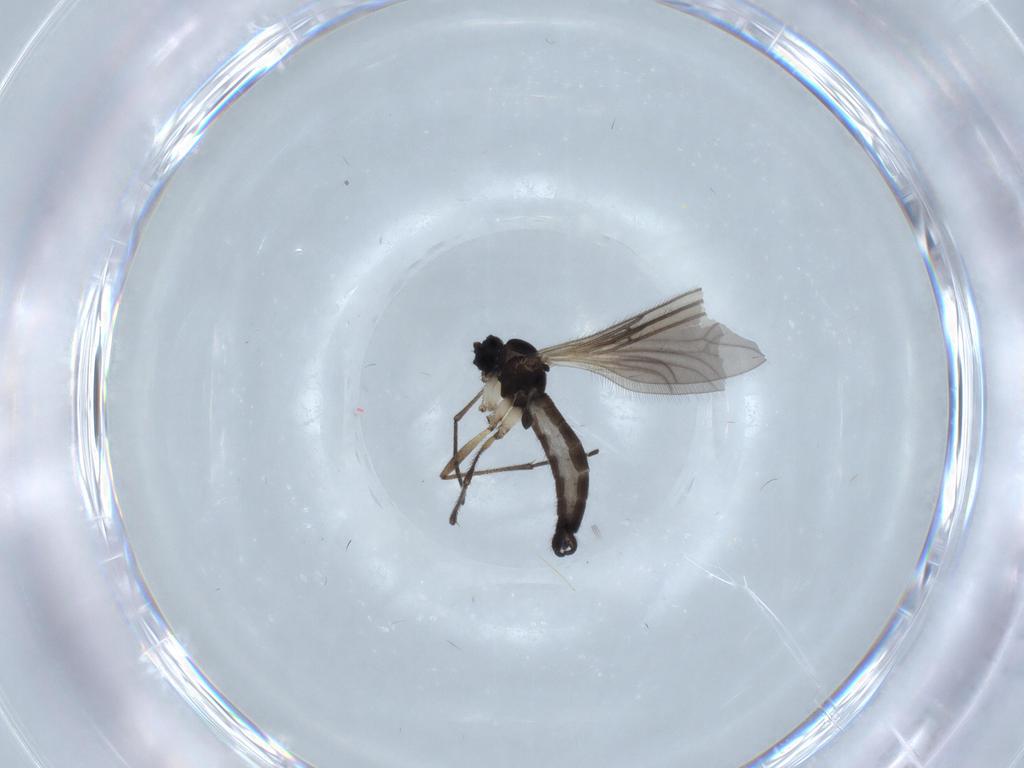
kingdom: Animalia
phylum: Arthropoda
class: Insecta
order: Diptera
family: Sciaridae
